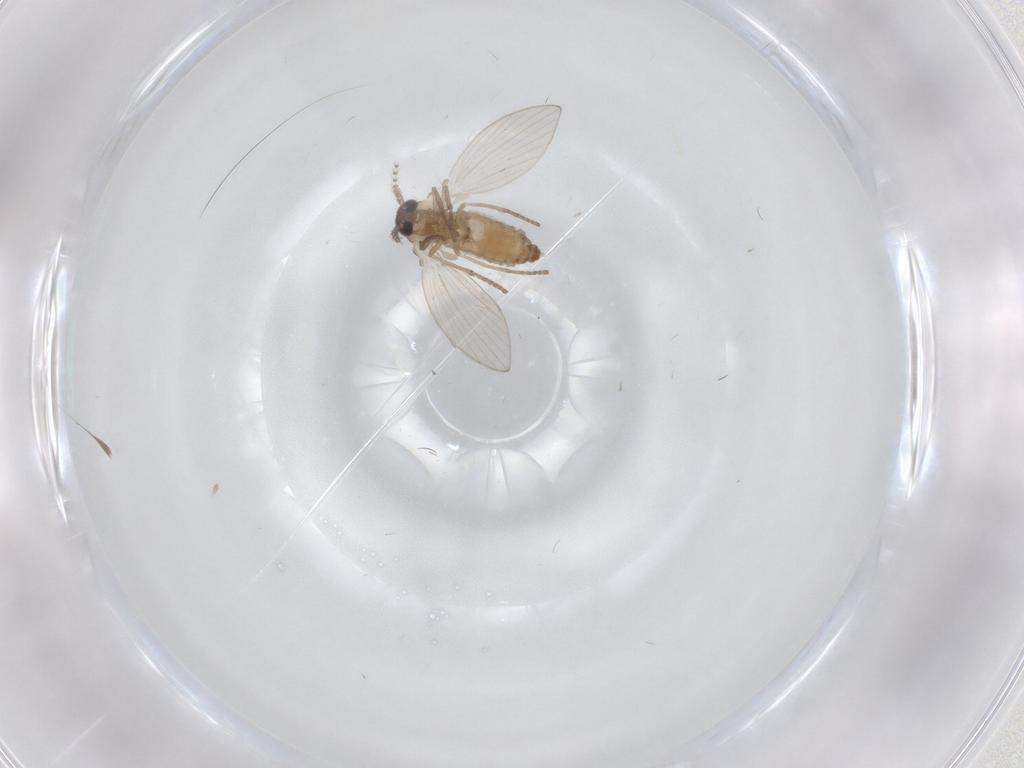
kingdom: Animalia
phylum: Arthropoda
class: Insecta
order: Diptera
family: Psychodidae
